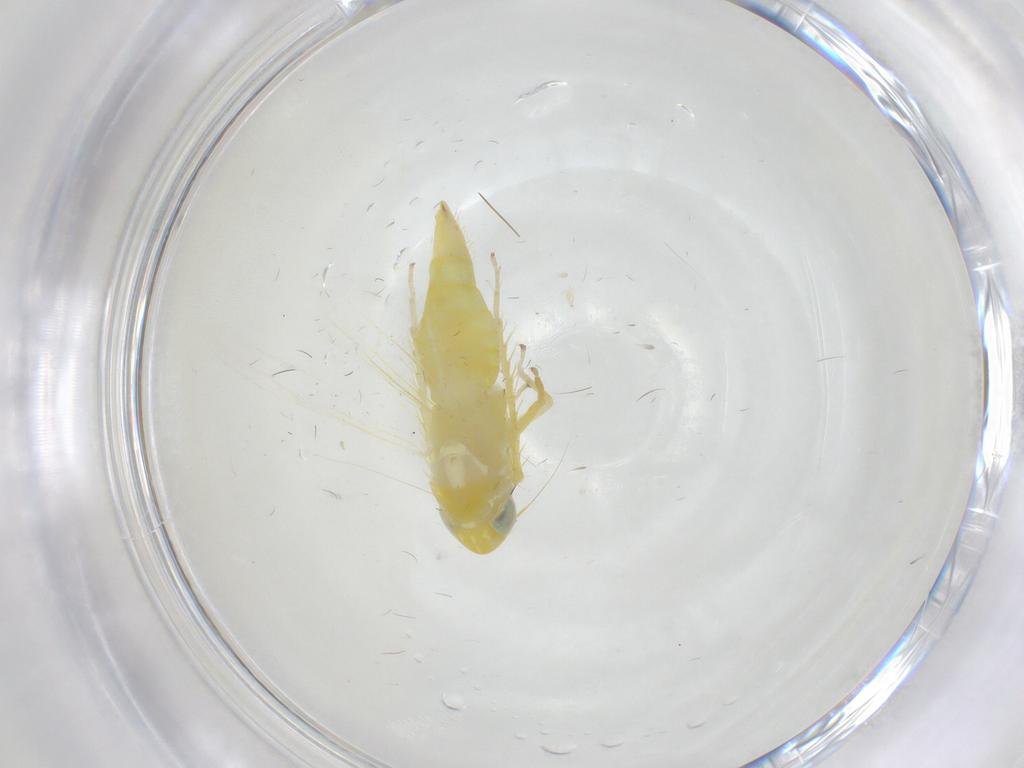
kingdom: Animalia
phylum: Arthropoda
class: Insecta
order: Hemiptera
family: Cicadellidae
